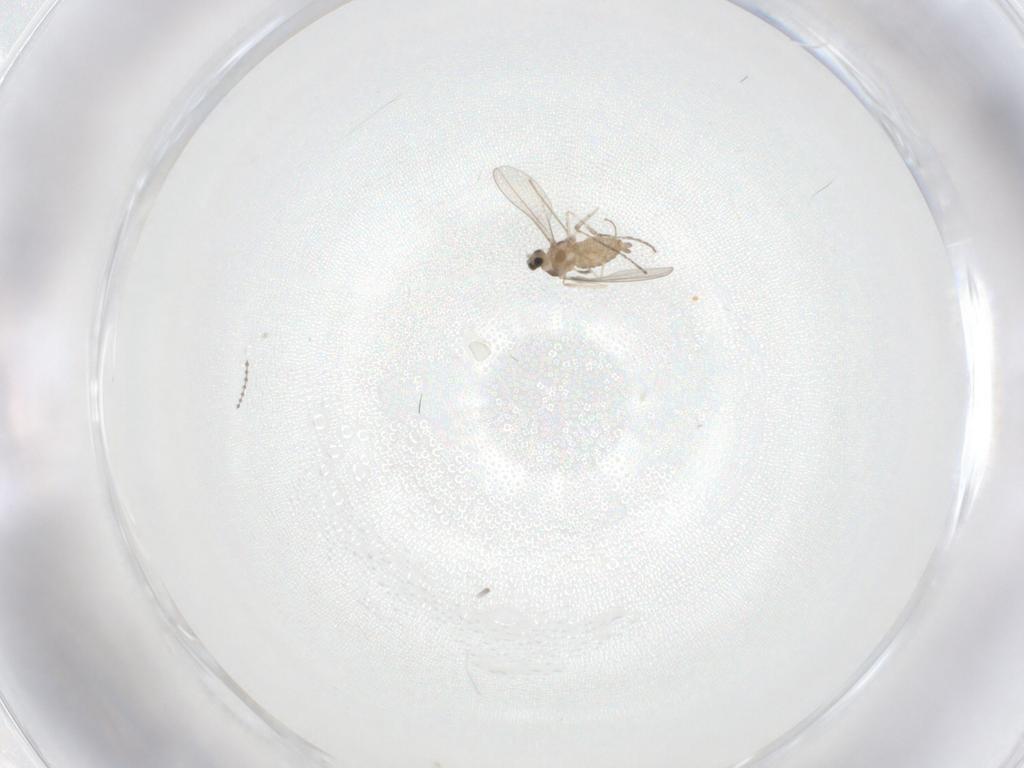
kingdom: Animalia
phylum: Arthropoda
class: Insecta
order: Diptera
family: Cecidomyiidae
